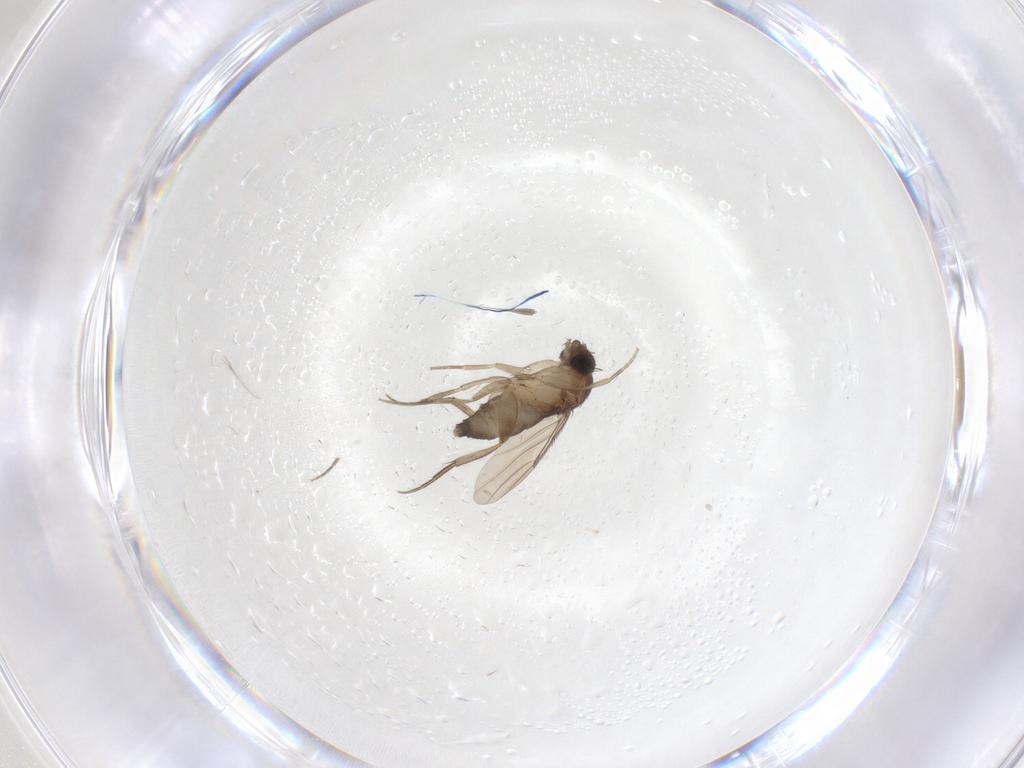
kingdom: Animalia
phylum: Arthropoda
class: Insecta
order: Diptera
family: Phoridae
